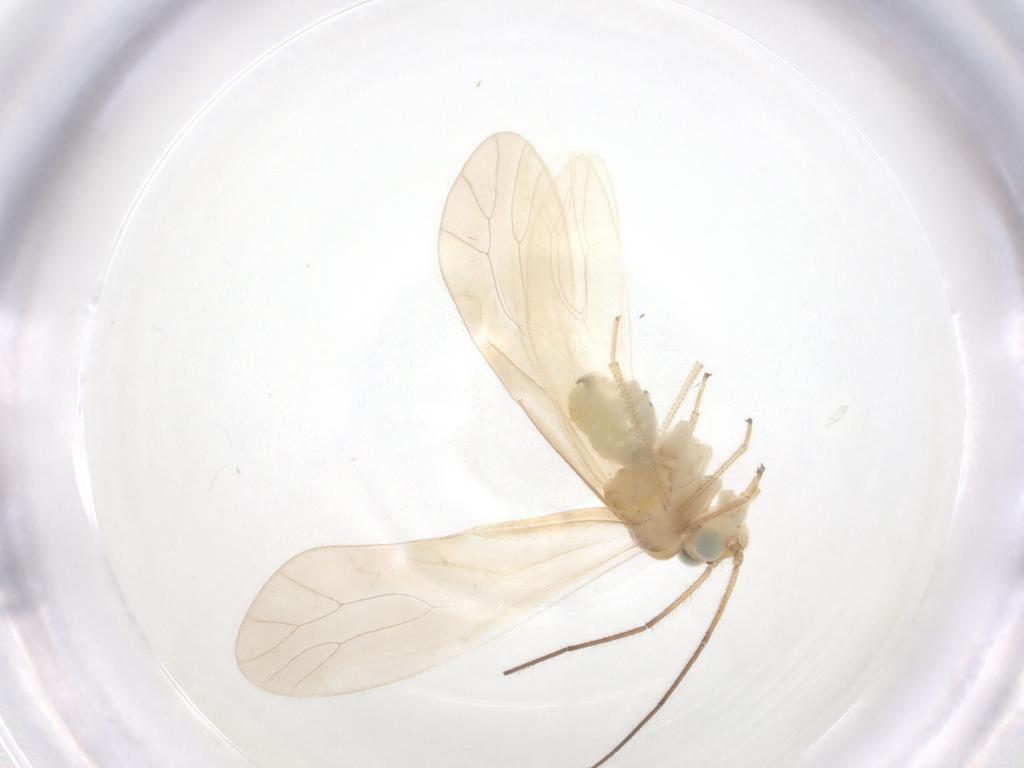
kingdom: Animalia
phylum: Arthropoda
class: Insecta
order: Psocodea
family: Caeciliusidae
